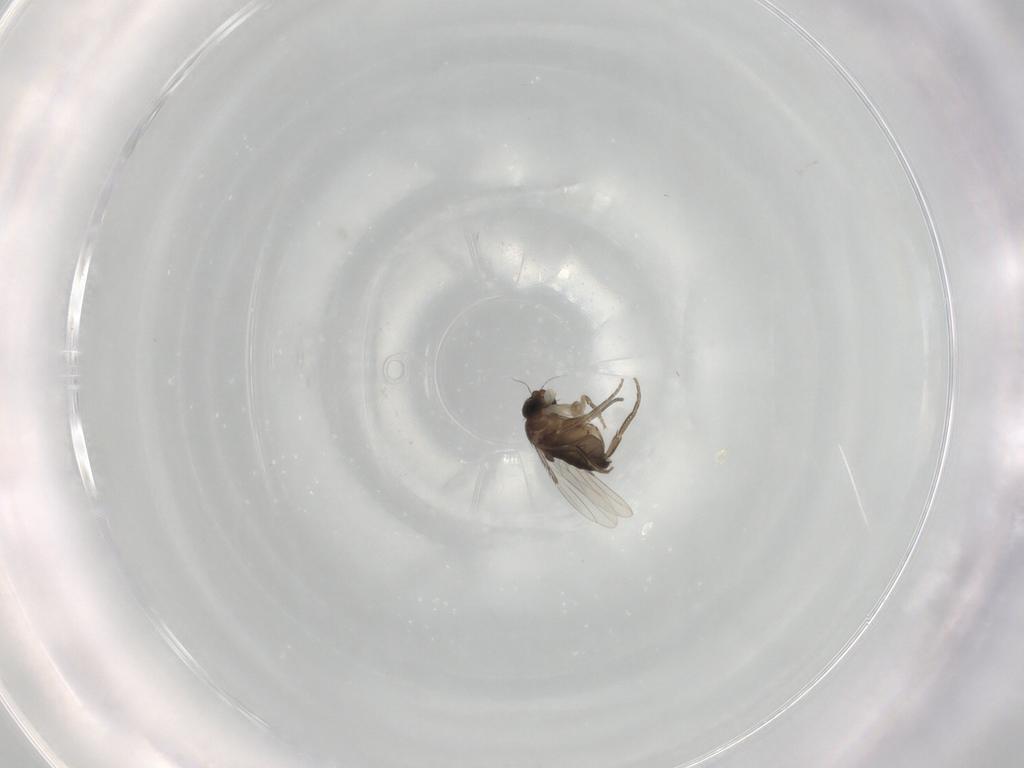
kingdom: Animalia
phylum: Arthropoda
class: Insecta
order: Diptera
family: Phoridae
